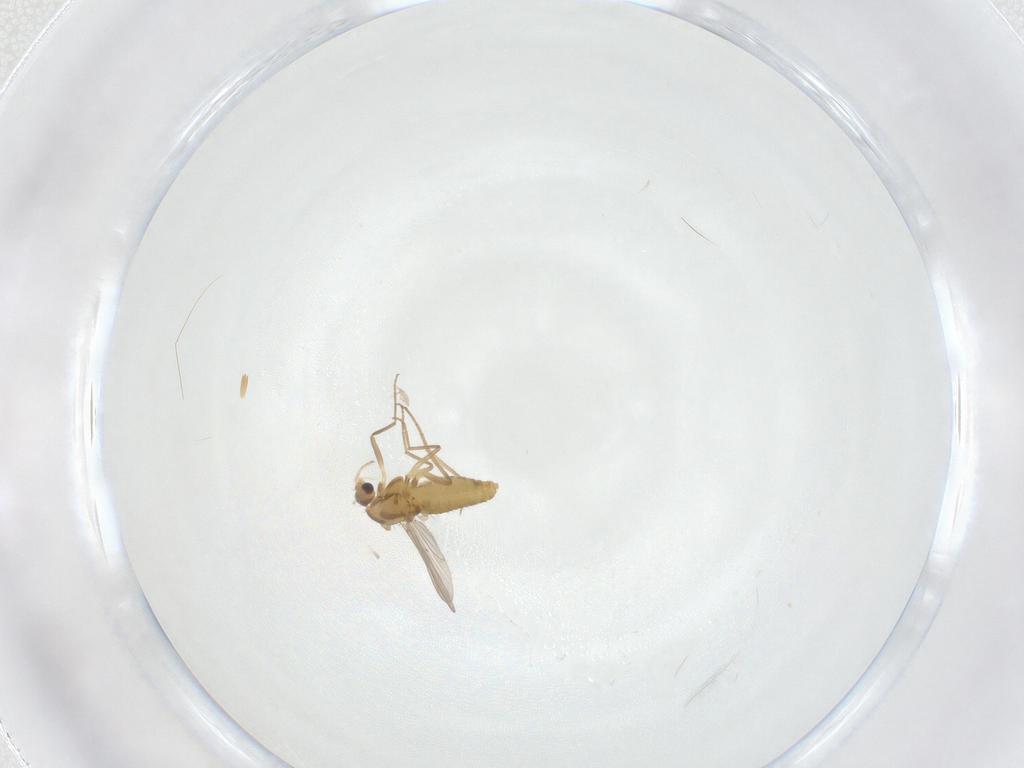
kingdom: Animalia
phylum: Arthropoda
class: Insecta
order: Diptera
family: Chironomidae
